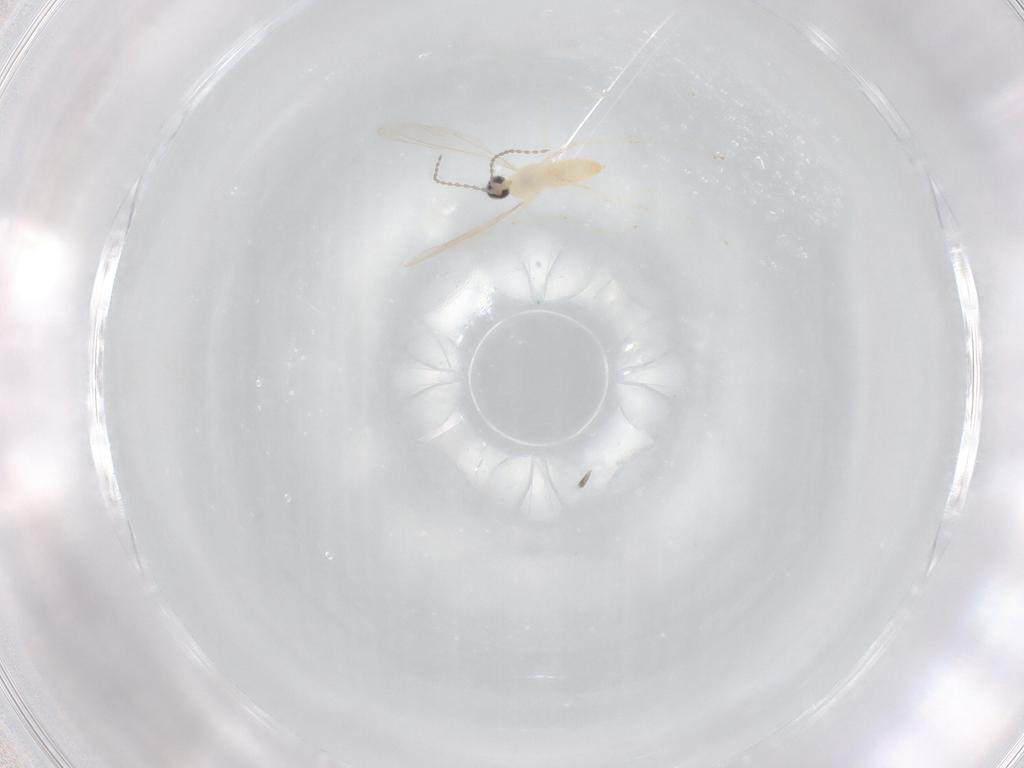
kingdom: Animalia
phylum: Arthropoda
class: Insecta
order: Diptera
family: Cecidomyiidae
